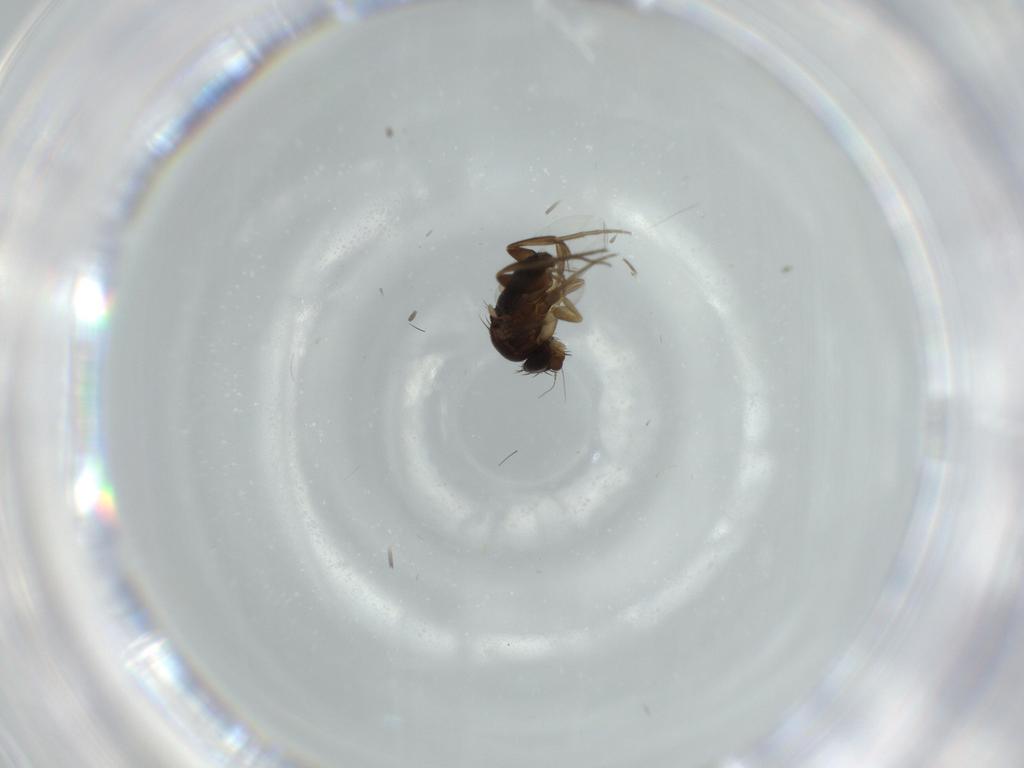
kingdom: Animalia
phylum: Arthropoda
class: Insecta
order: Diptera
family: Phoridae
